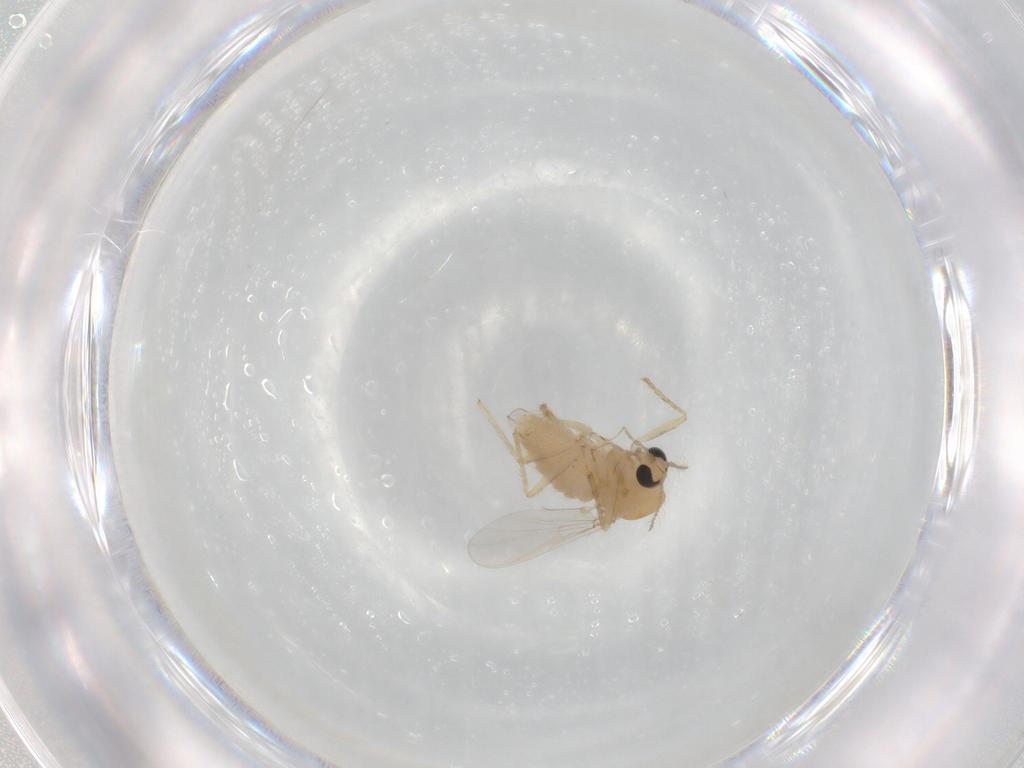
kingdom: Animalia
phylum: Arthropoda
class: Insecta
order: Diptera
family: Chironomidae
